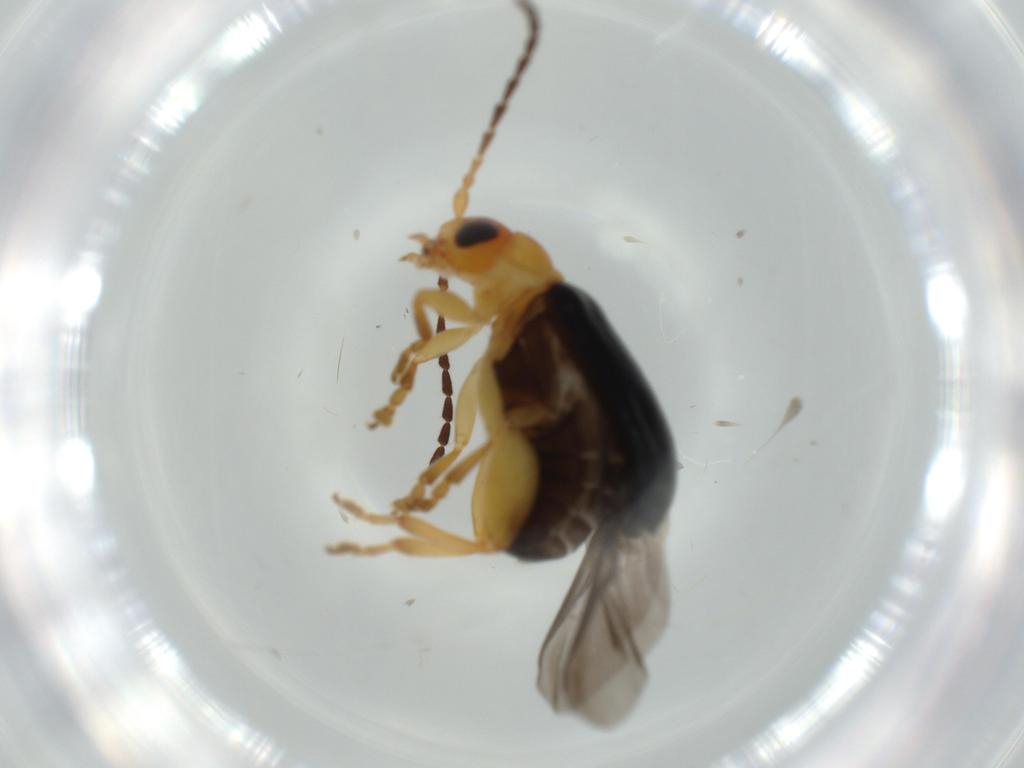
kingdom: Animalia
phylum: Arthropoda
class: Insecta
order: Coleoptera
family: Chrysomelidae
